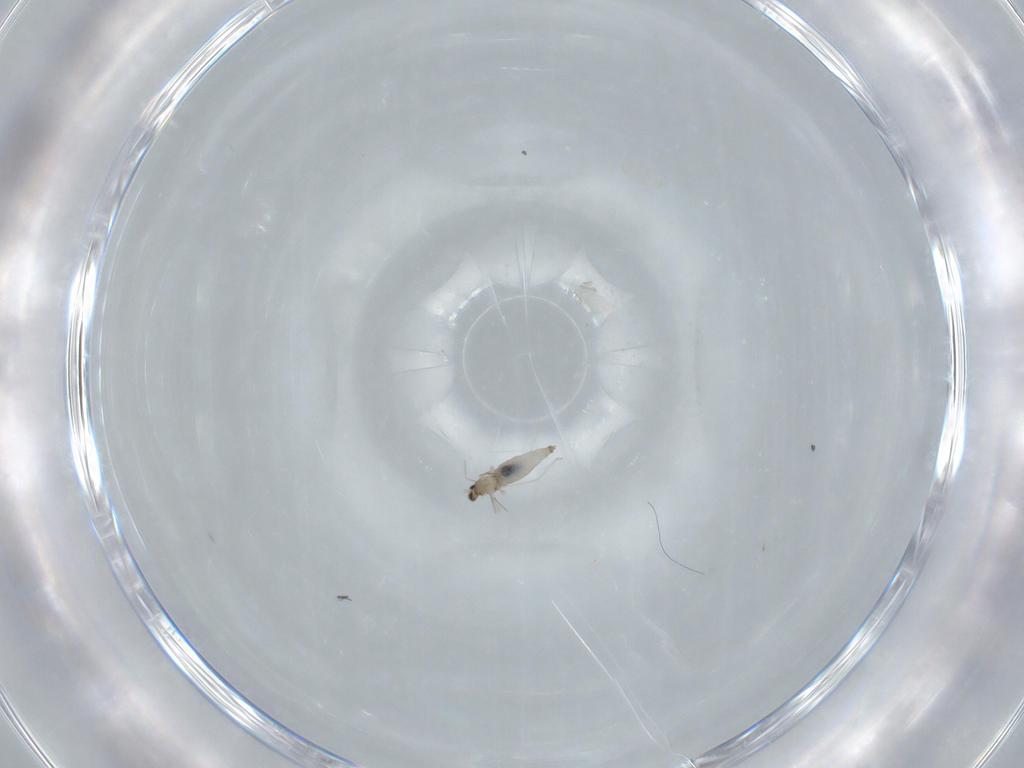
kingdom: Animalia
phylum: Arthropoda
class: Insecta
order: Diptera
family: Cecidomyiidae
